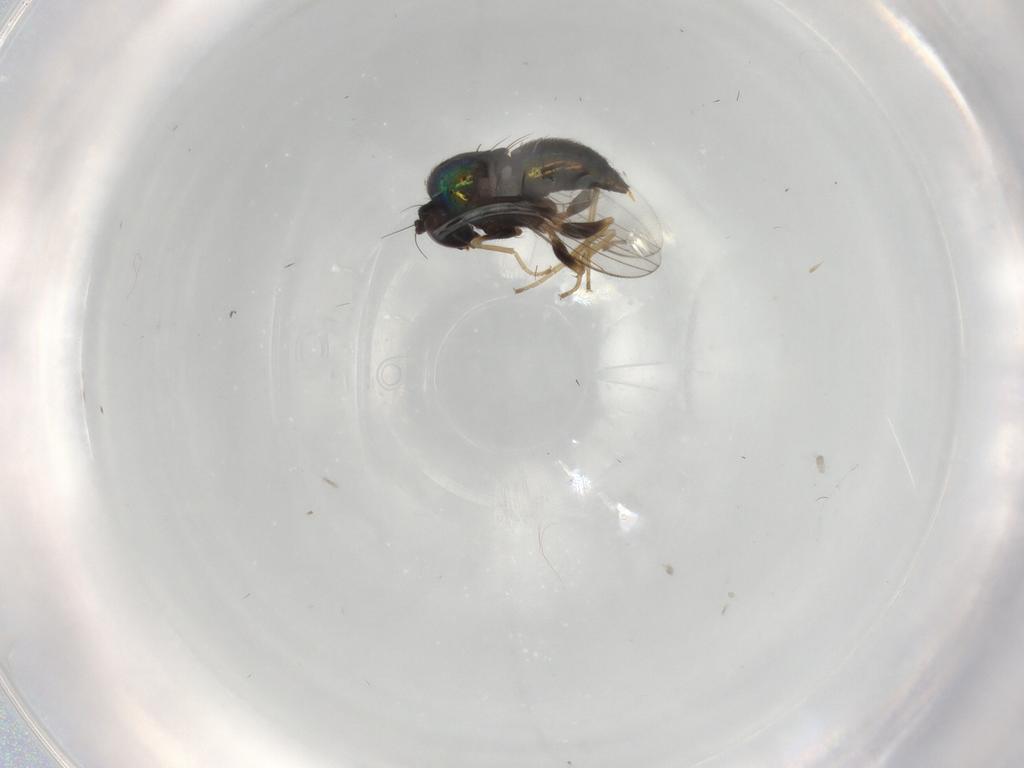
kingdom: Animalia
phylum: Arthropoda
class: Insecta
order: Diptera
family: Dolichopodidae
